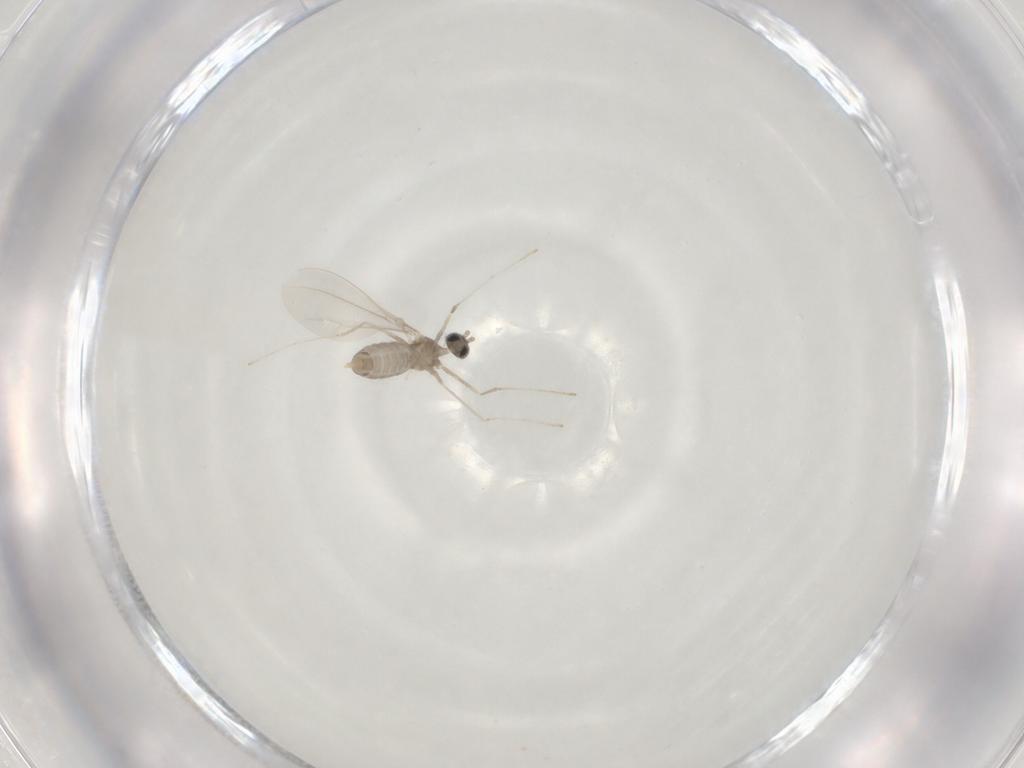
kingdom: Animalia
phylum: Arthropoda
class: Insecta
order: Diptera
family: Cecidomyiidae
